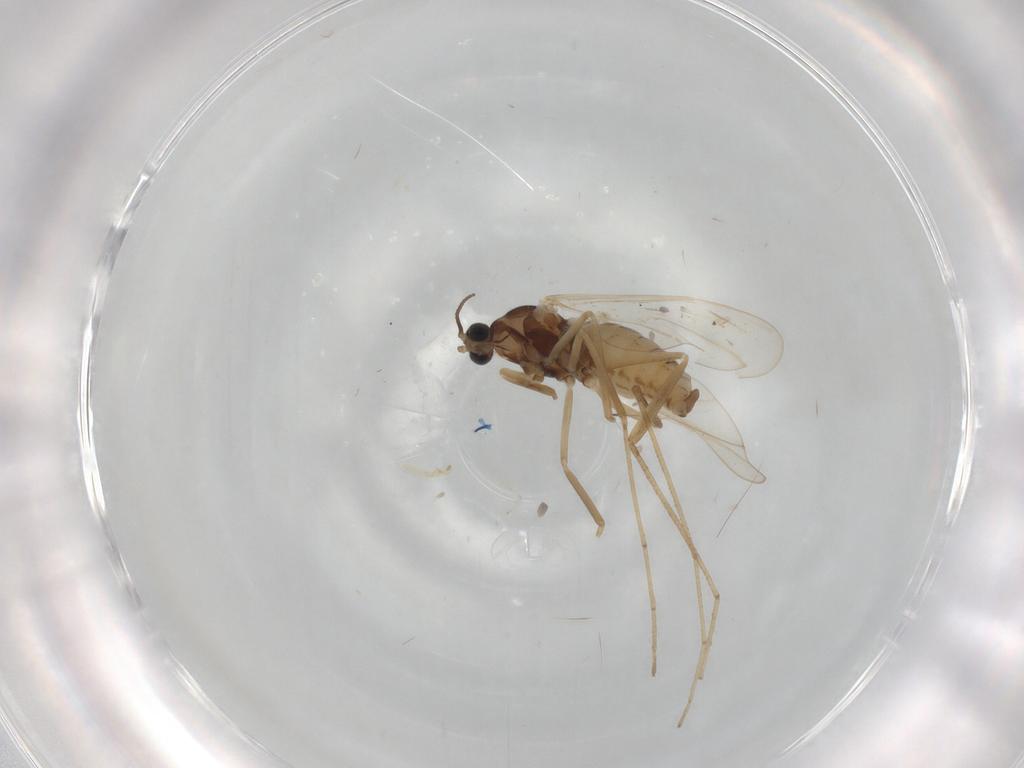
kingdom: Animalia
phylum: Arthropoda
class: Insecta
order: Diptera
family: Cecidomyiidae
